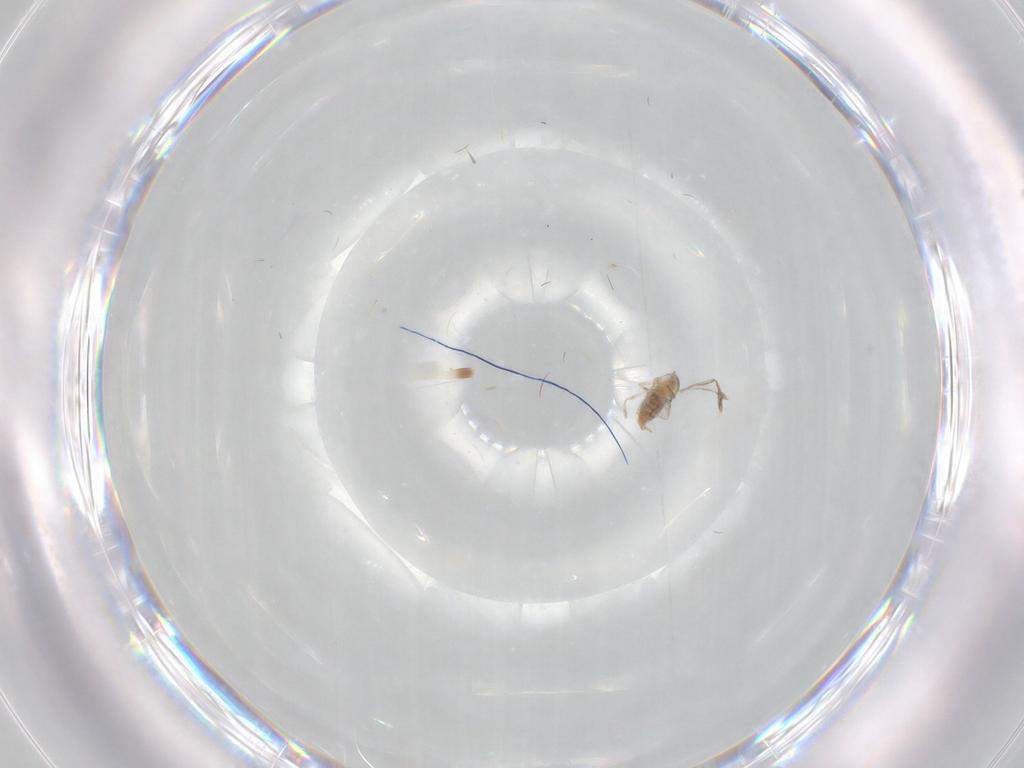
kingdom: Animalia
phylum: Arthropoda
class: Insecta
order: Diptera
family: Cecidomyiidae
